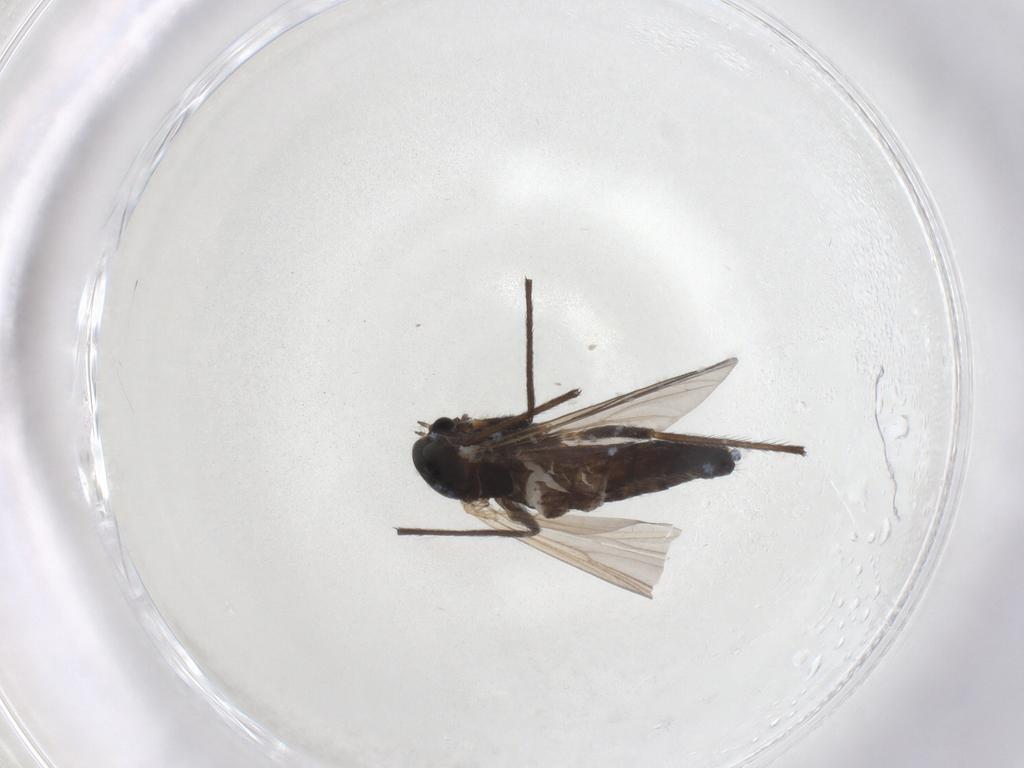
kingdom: Animalia
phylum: Arthropoda
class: Insecta
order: Diptera
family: Chironomidae
